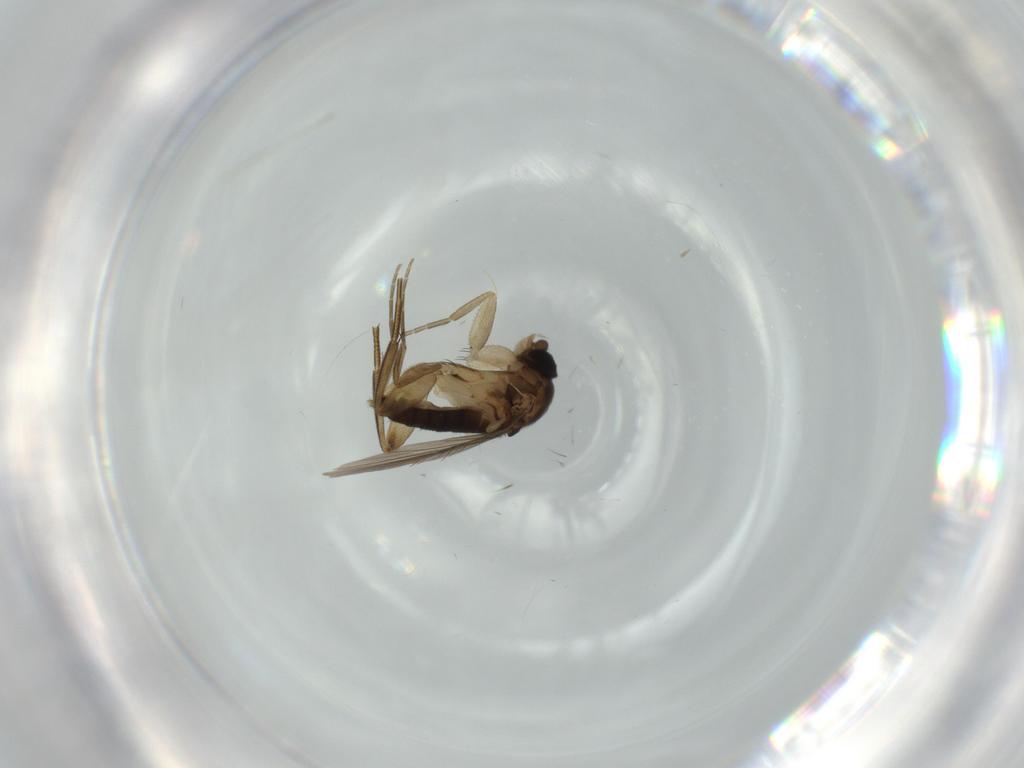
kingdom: Animalia
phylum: Arthropoda
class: Insecta
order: Diptera
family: Phoridae
